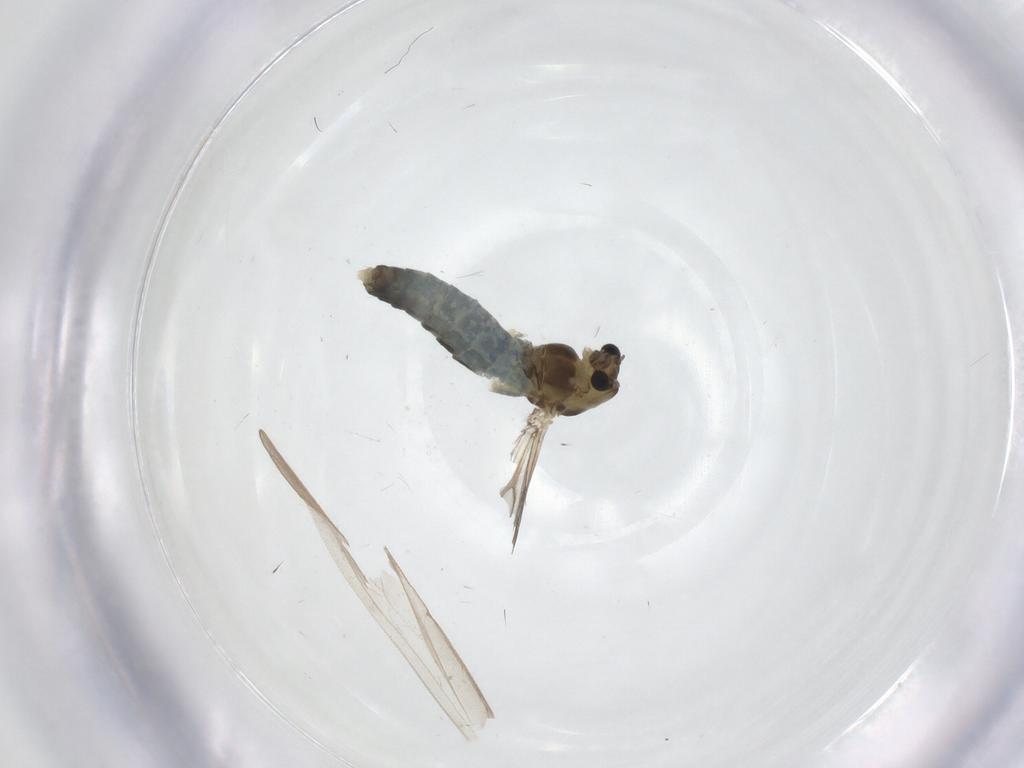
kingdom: Animalia
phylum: Arthropoda
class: Insecta
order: Diptera
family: Chironomidae
